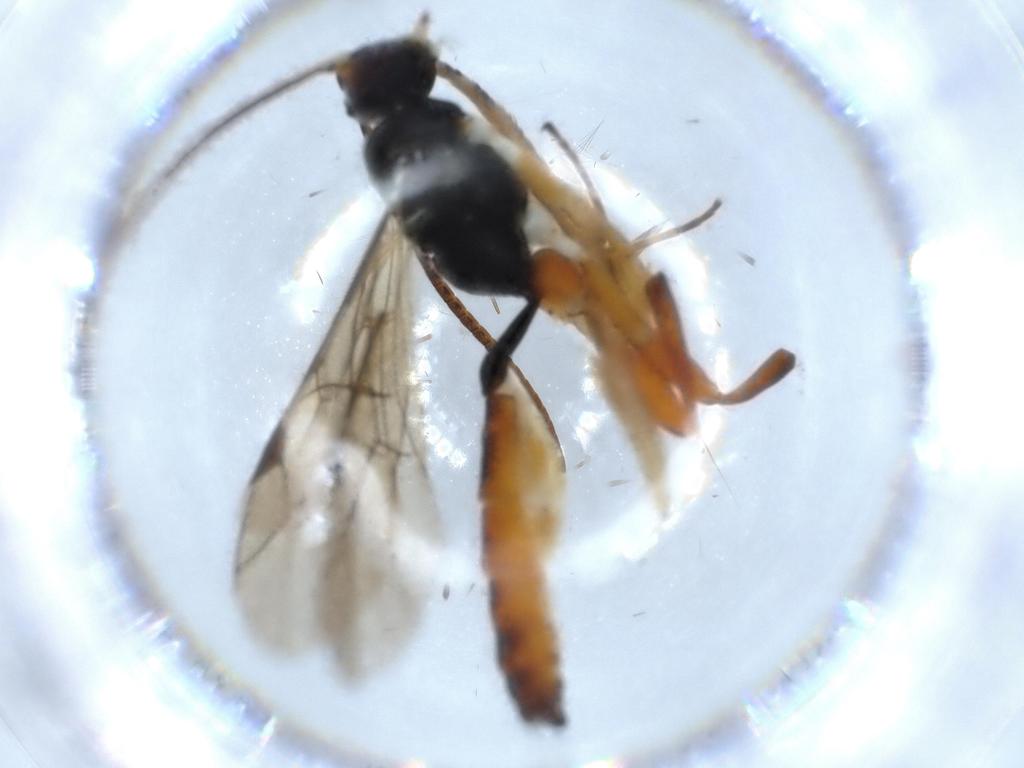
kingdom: Animalia
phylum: Arthropoda
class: Insecta
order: Hymenoptera
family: Ichneumonidae
